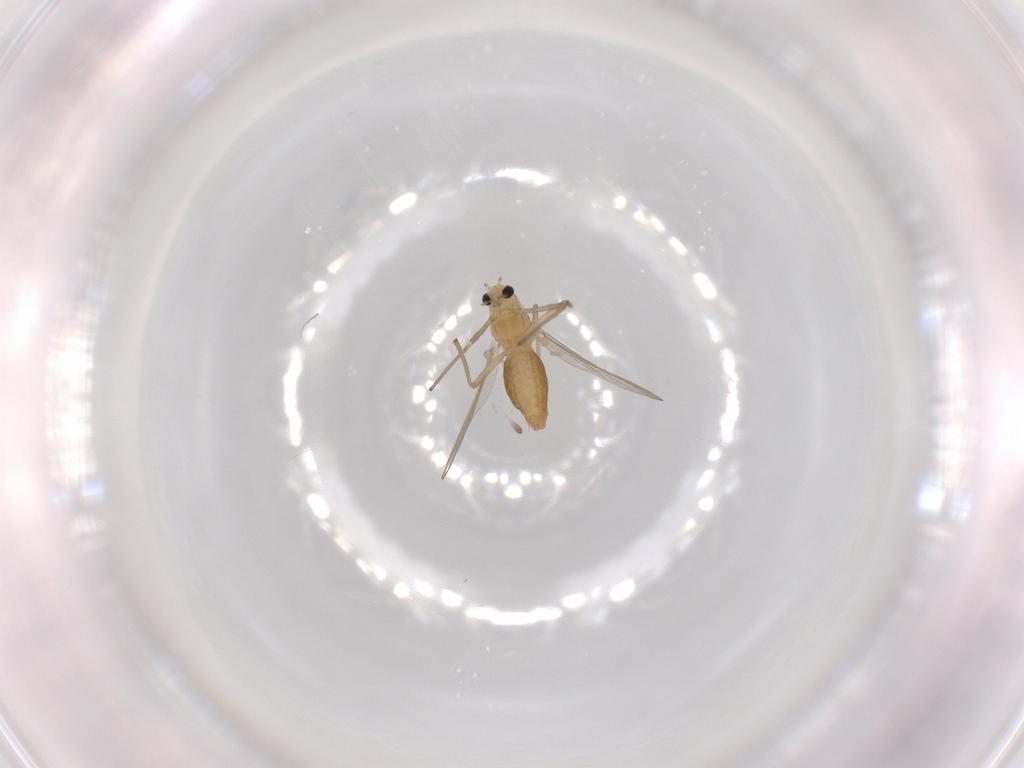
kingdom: Animalia
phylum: Arthropoda
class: Insecta
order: Diptera
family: Chironomidae
